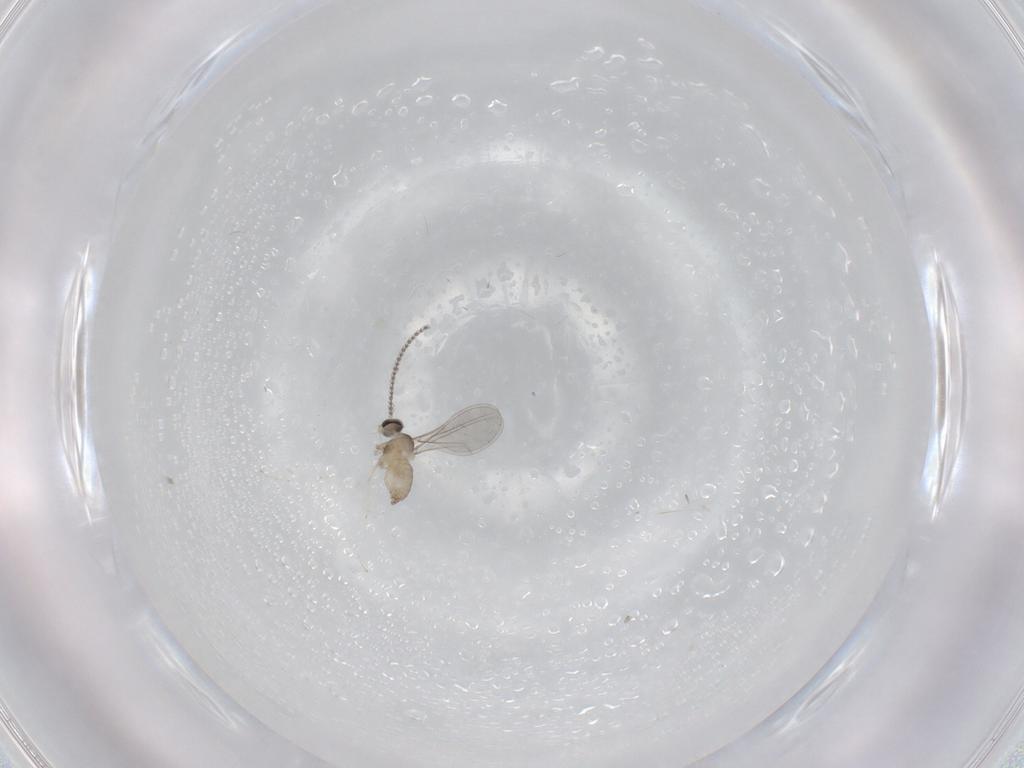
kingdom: Animalia
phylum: Arthropoda
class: Insecta
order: Diptera
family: Cecidomyiidae
